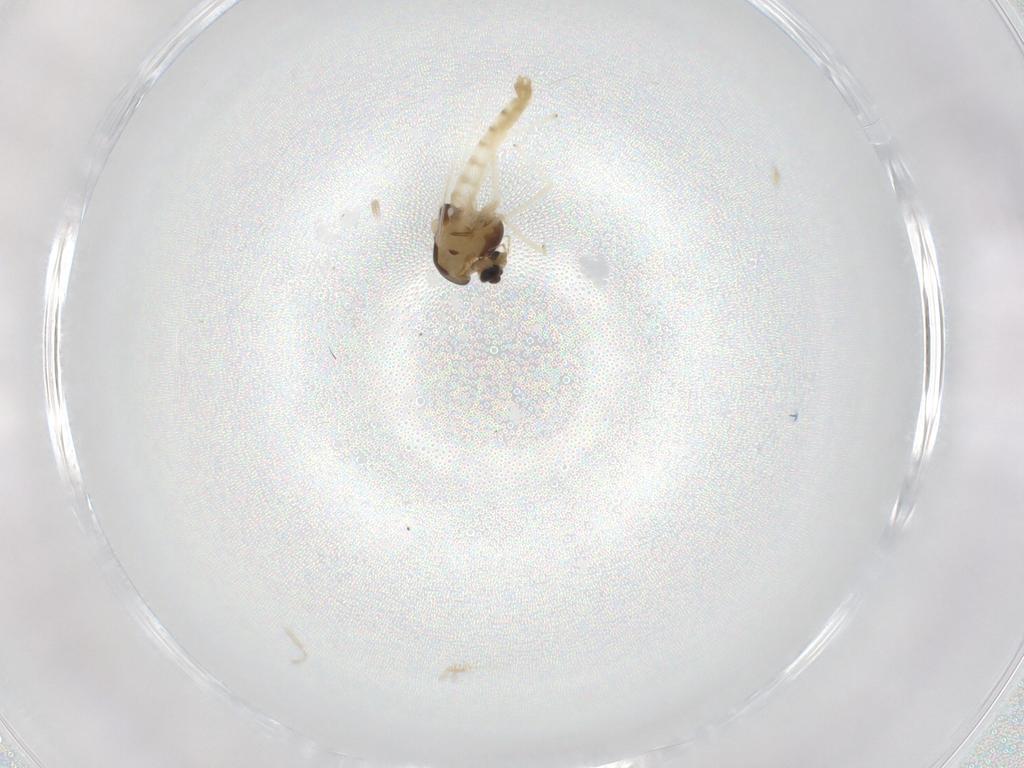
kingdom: Animalia
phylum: Arthropoda
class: Insecta
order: Diptera
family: Chironomidae
